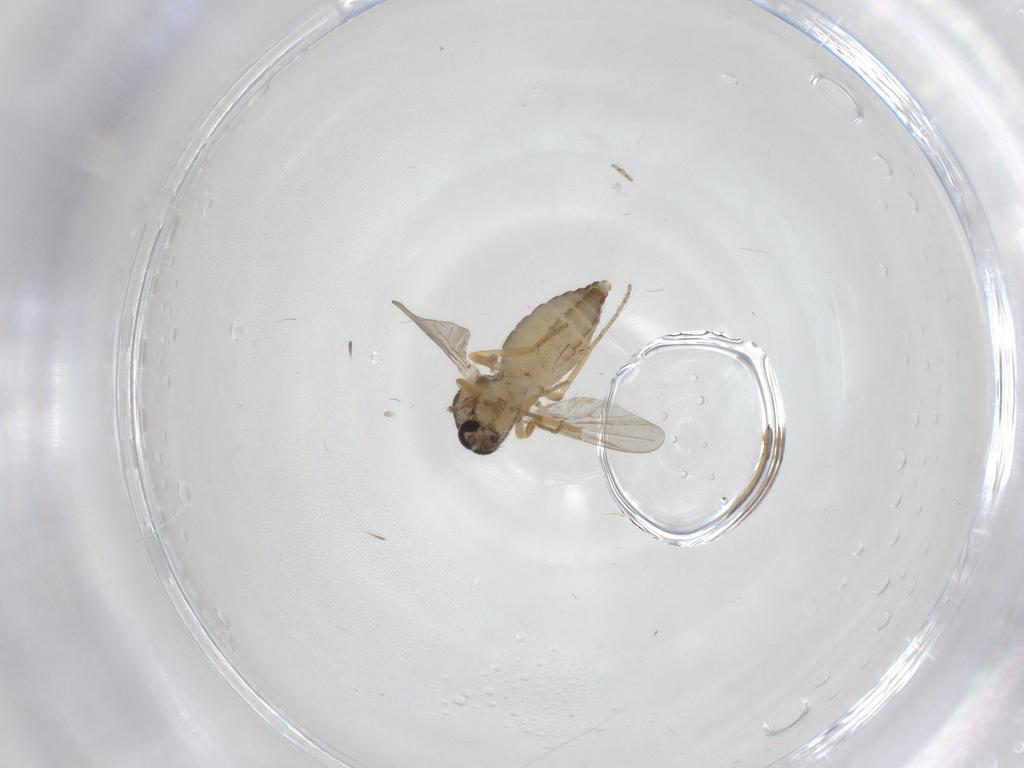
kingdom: Animalia
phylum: Arthropoda
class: Insecta
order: Diptera
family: Ceratopogonidae
